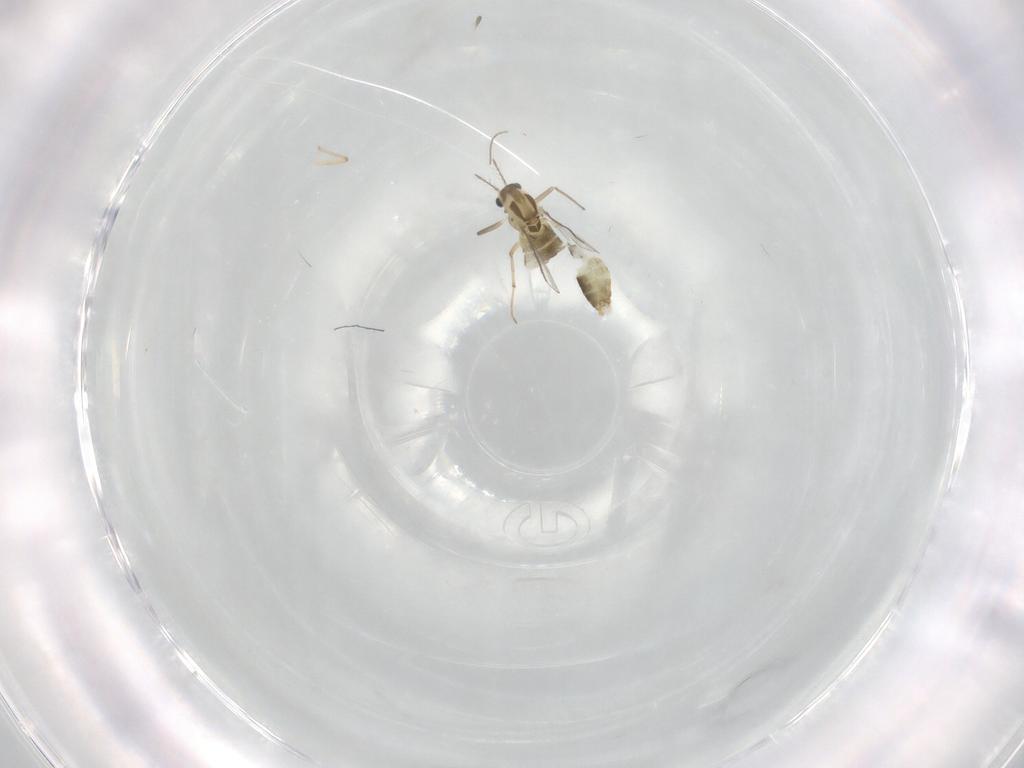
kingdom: Animalia
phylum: Arthropoda
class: Insecta
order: Diptera
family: Chironomidae
